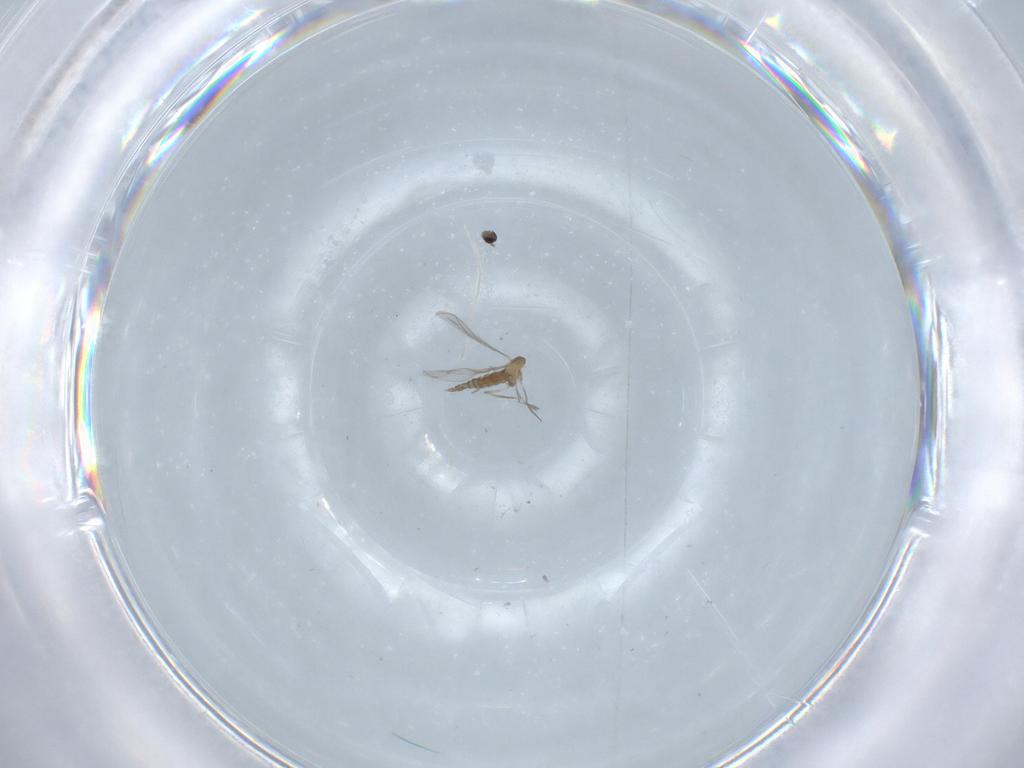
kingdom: Animalia
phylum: Arthropoda
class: Insecta
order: Diptera
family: Cecidomyiidae
